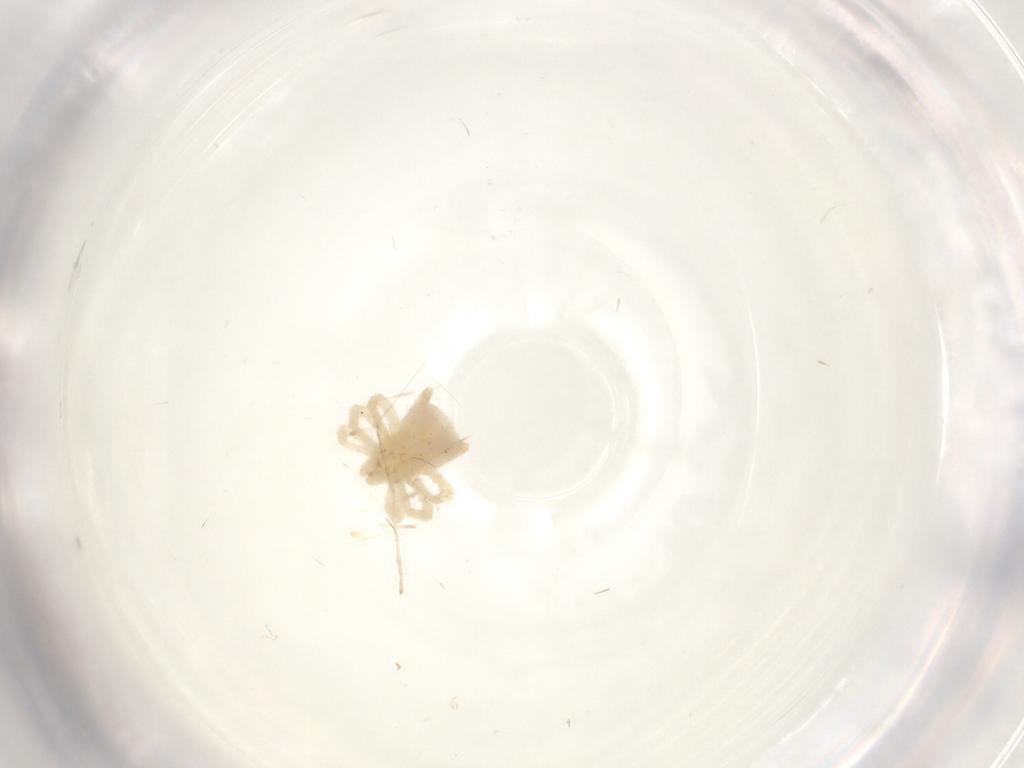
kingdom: Animalia
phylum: Arthropoda
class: Arachnida
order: Trombidiformes
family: Anystidae
